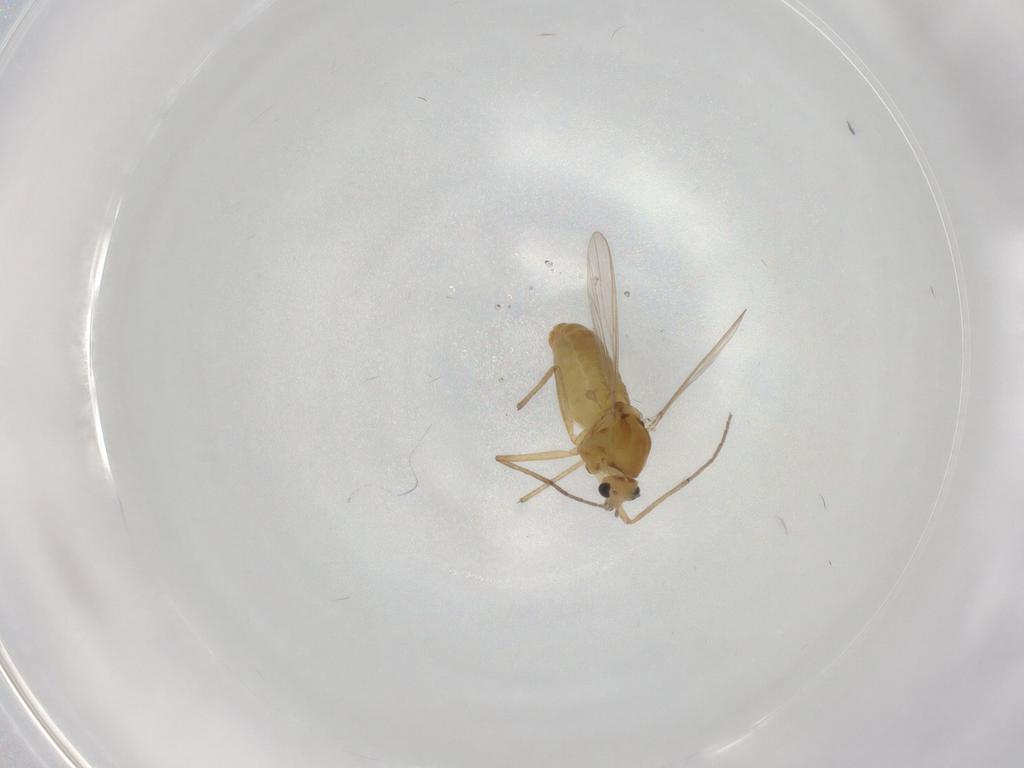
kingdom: Animalia
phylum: Arthropoda
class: Insecta
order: Diptera
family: Chironomidae
